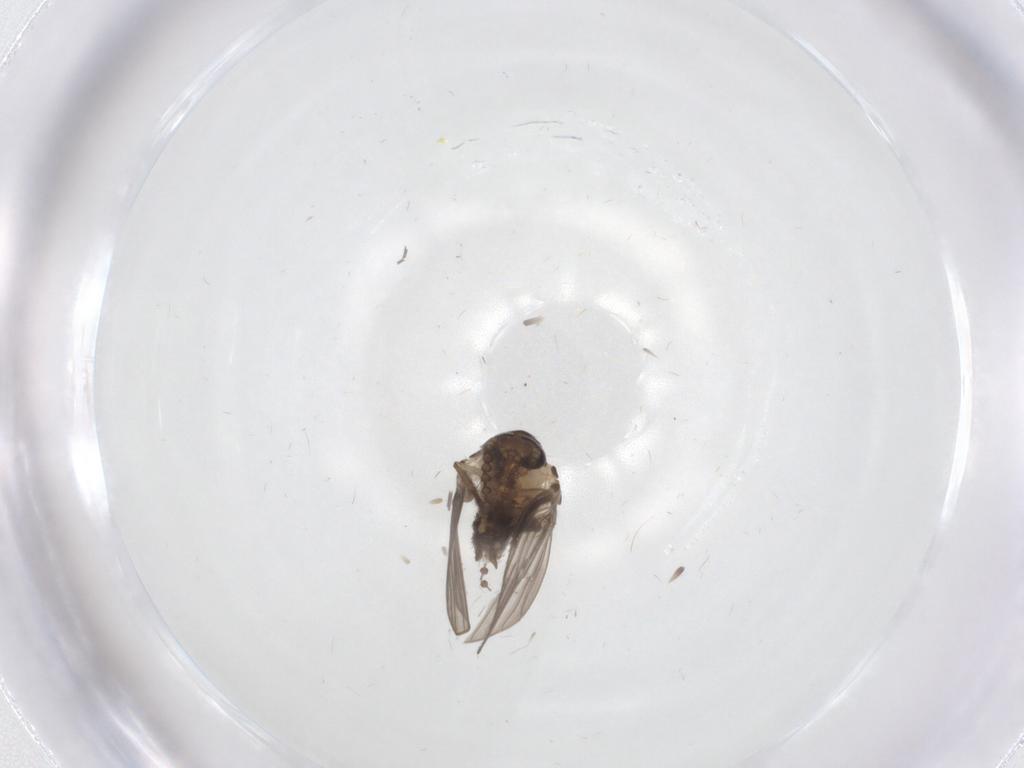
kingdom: Animalia
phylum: Arthropoda
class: Insecta
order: Diptera
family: Psychodidae
